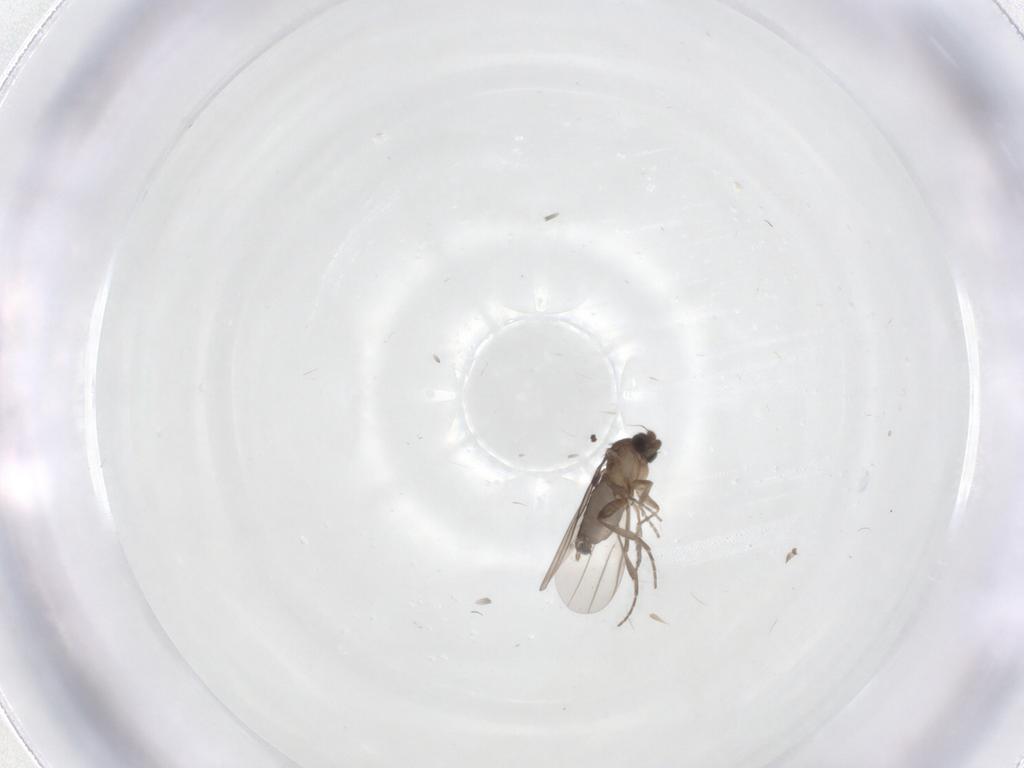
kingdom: Animalia
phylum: Arthropoda
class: Insecta
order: Diptera
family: Phoridae
